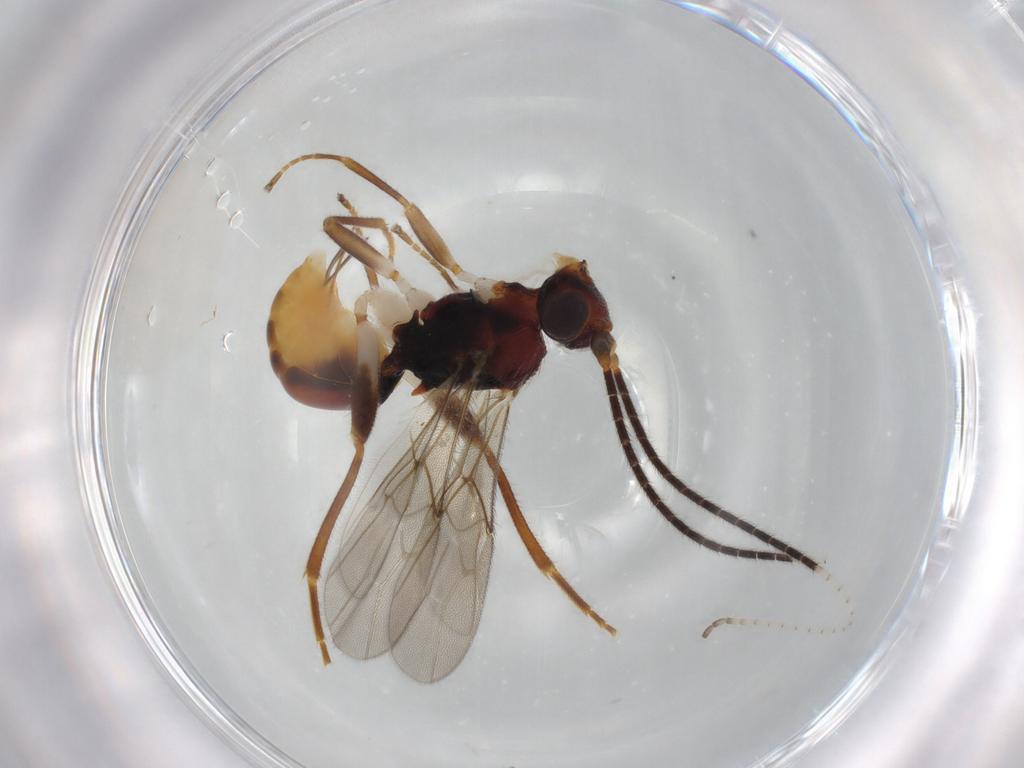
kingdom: Animalia
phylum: Arthropoda
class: Insecta
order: Hymenoptera
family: Braconidae
